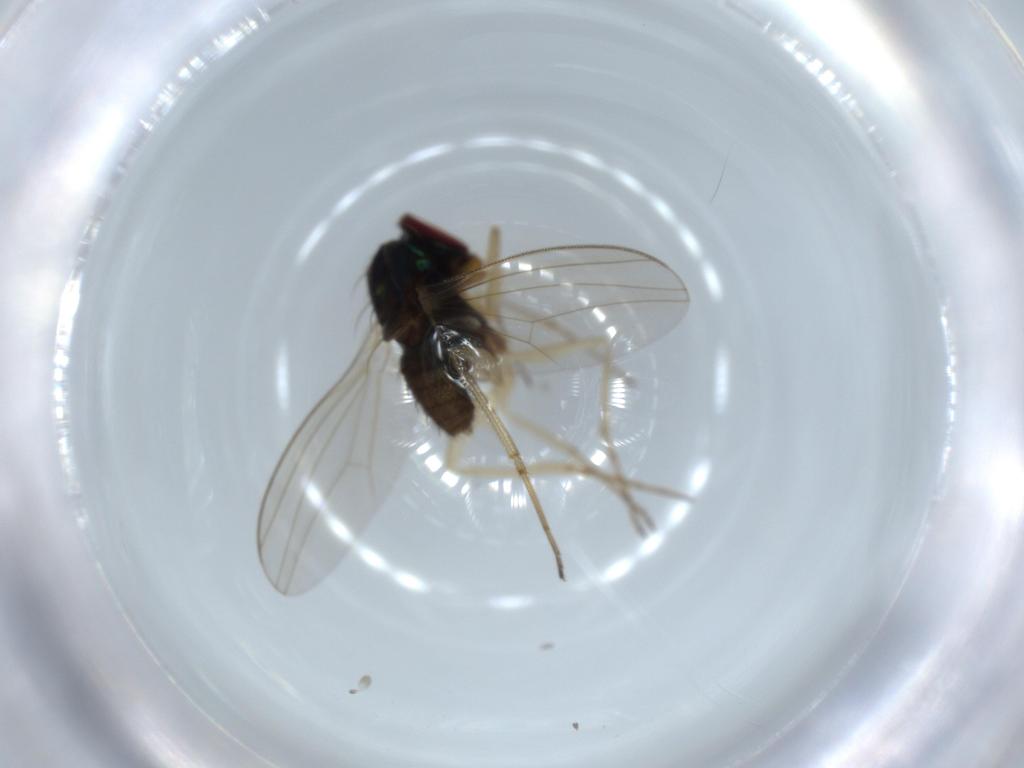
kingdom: Animalia
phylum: Arthropoda
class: Insecta
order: Diptera
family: Dolichopodidae
